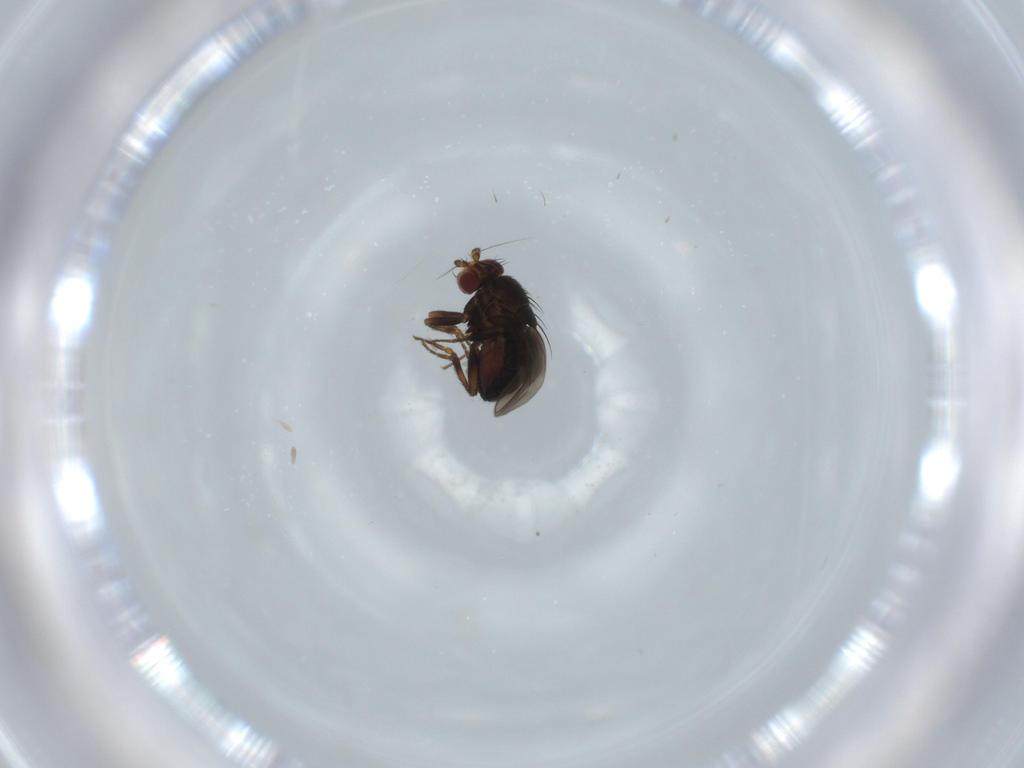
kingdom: Animalia
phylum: Arthropoda
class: Insecta
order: Diptera
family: Sphaeroceridae
